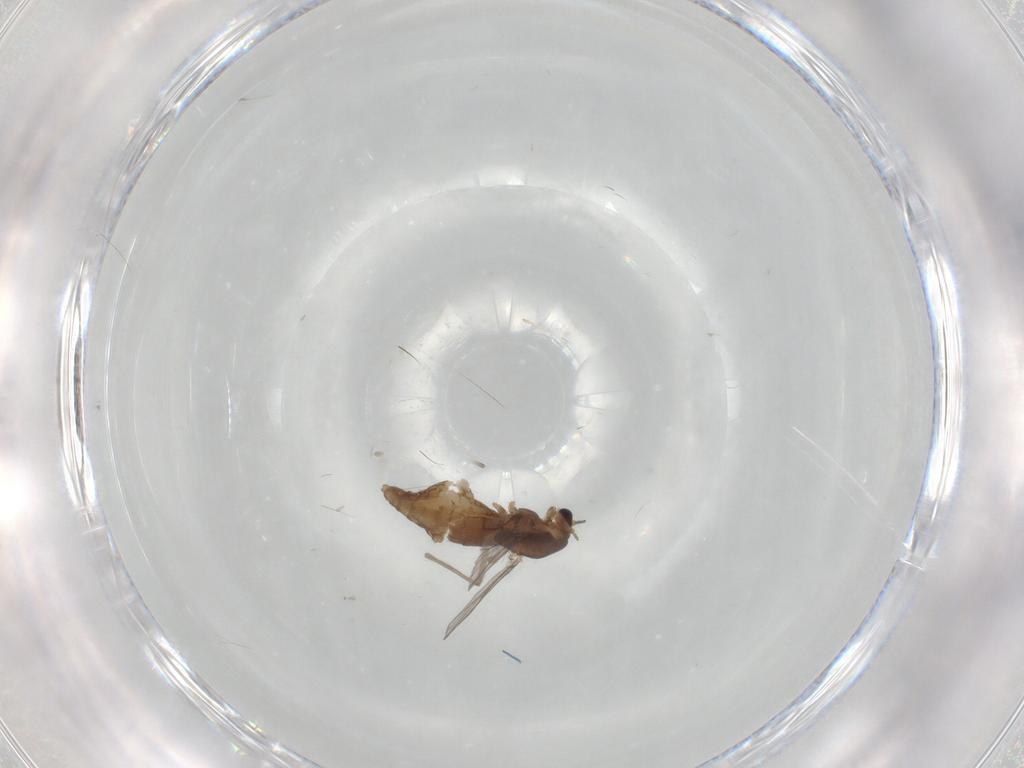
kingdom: Animalia
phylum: Arthropoda
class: Insecta
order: Diptera
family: Chironomidae
